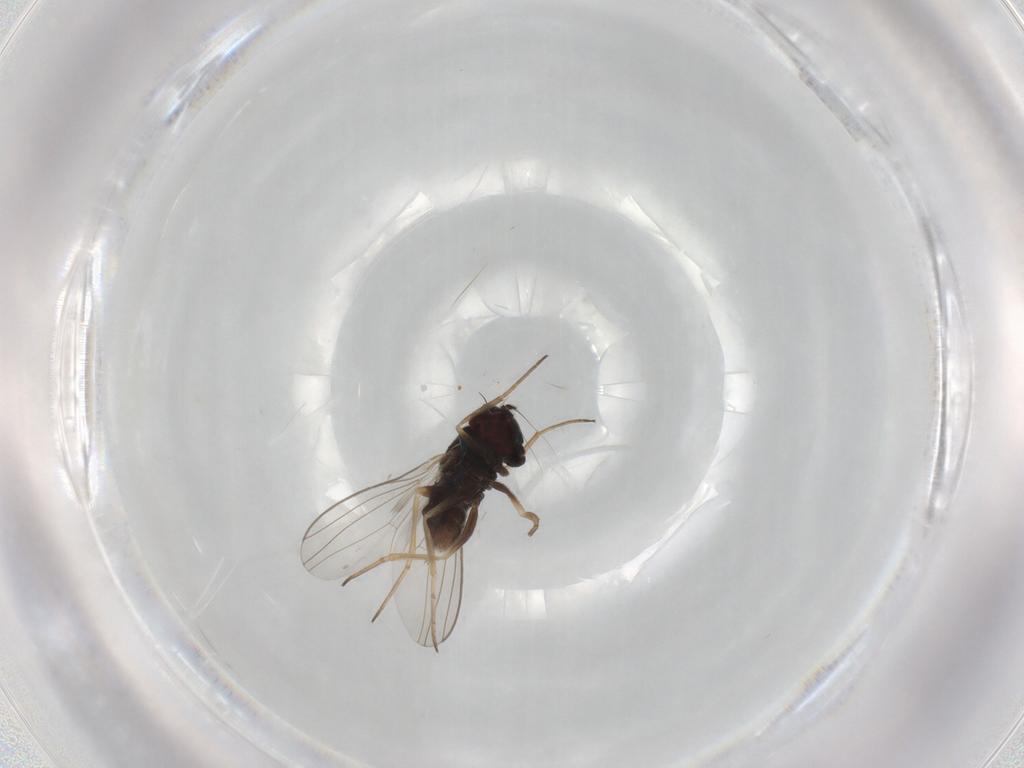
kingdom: Animalia
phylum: Arthropoda
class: Insecta
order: Diptera
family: Dolichopodidae
